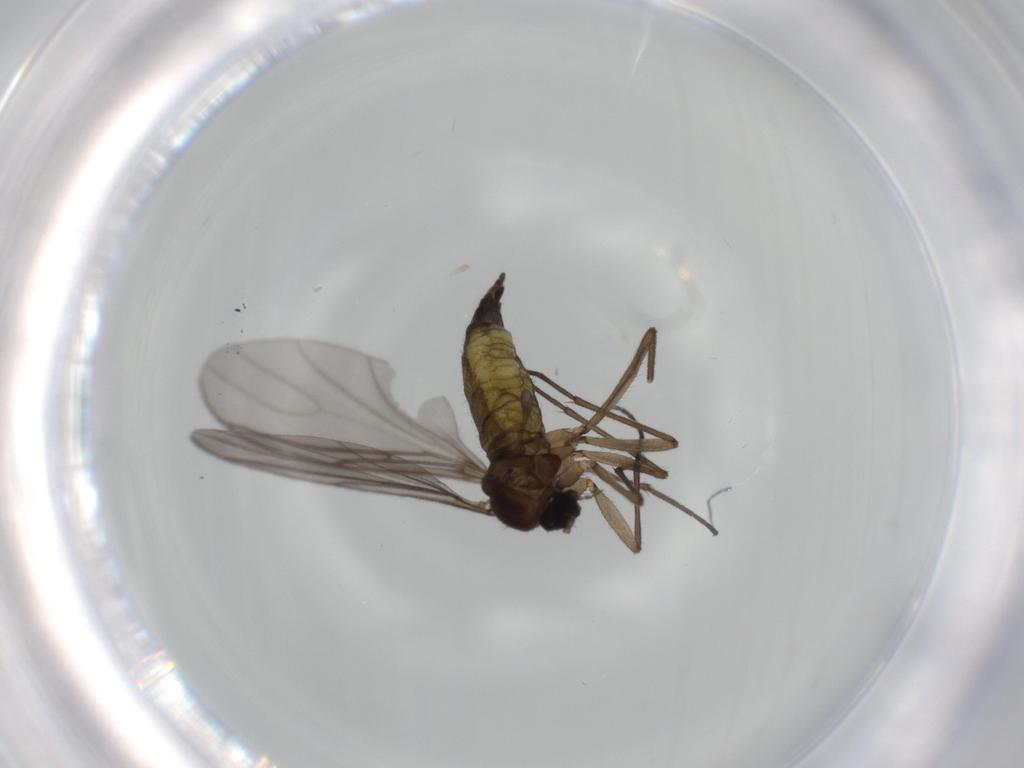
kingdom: Animalia
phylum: Arthropoda
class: Insecta
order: Diptera
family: Sciaridae
